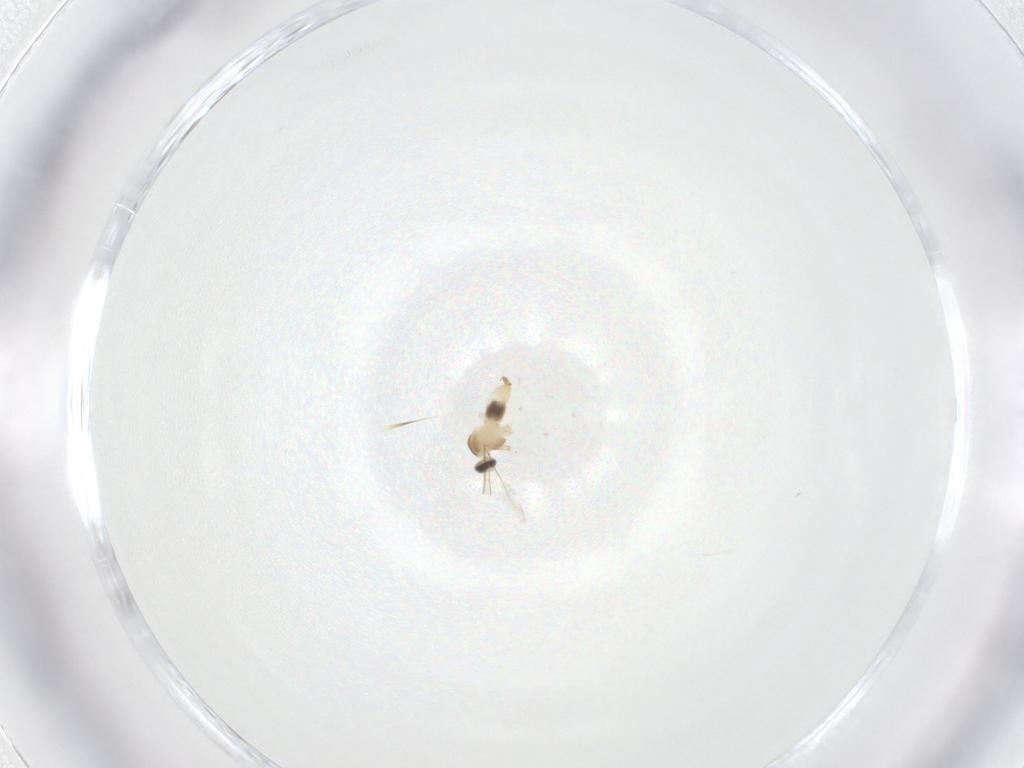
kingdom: Animalia
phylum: Arthropoda
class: Insecta
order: Diptera
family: Cecidomyiidae
